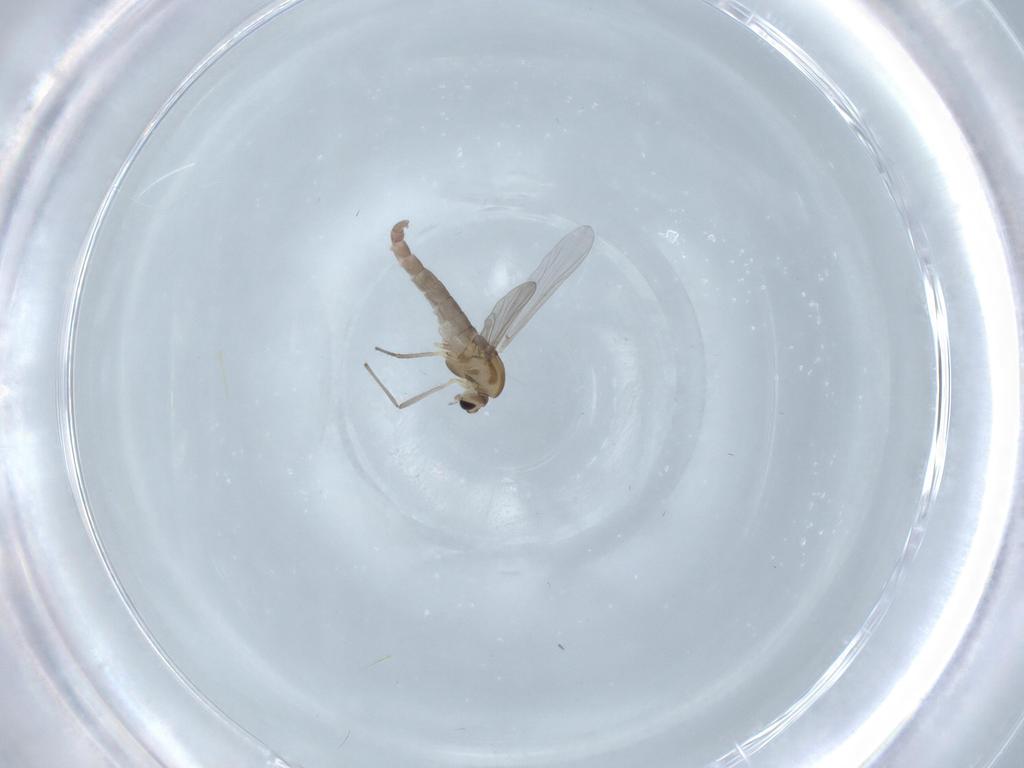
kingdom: Animalia
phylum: Arthropoda
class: Insecta
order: Diptera
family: Chironomidae
